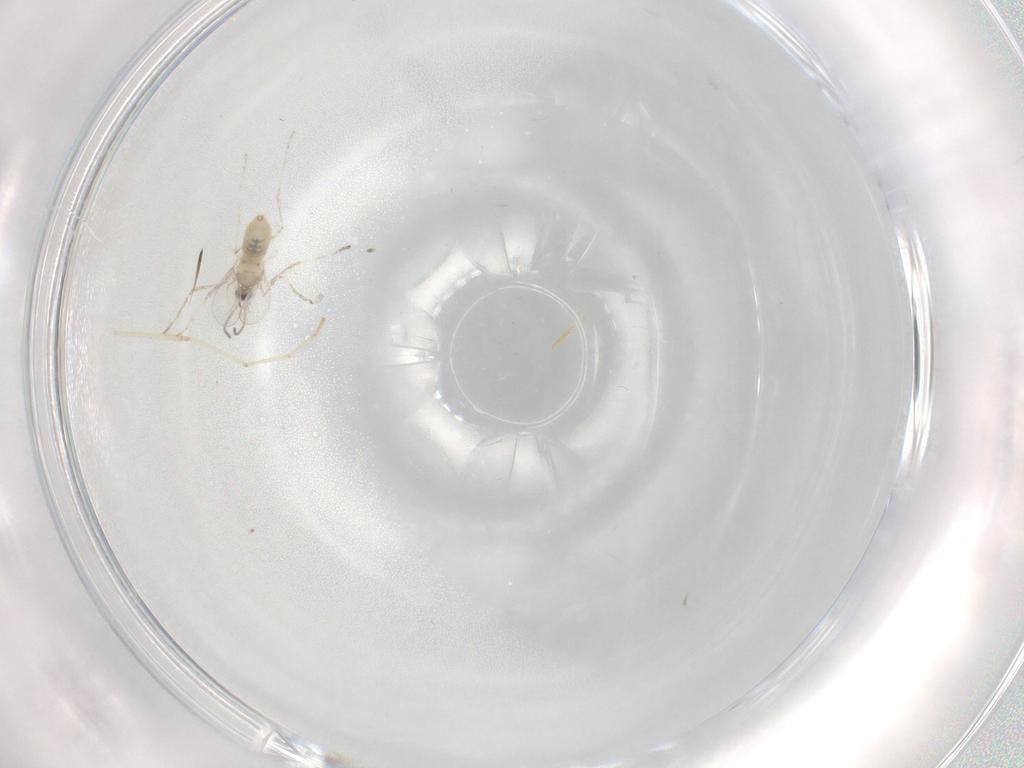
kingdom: Animalia
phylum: Arthropoda
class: Insecta
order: Diptera
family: Cecidomyiidae
